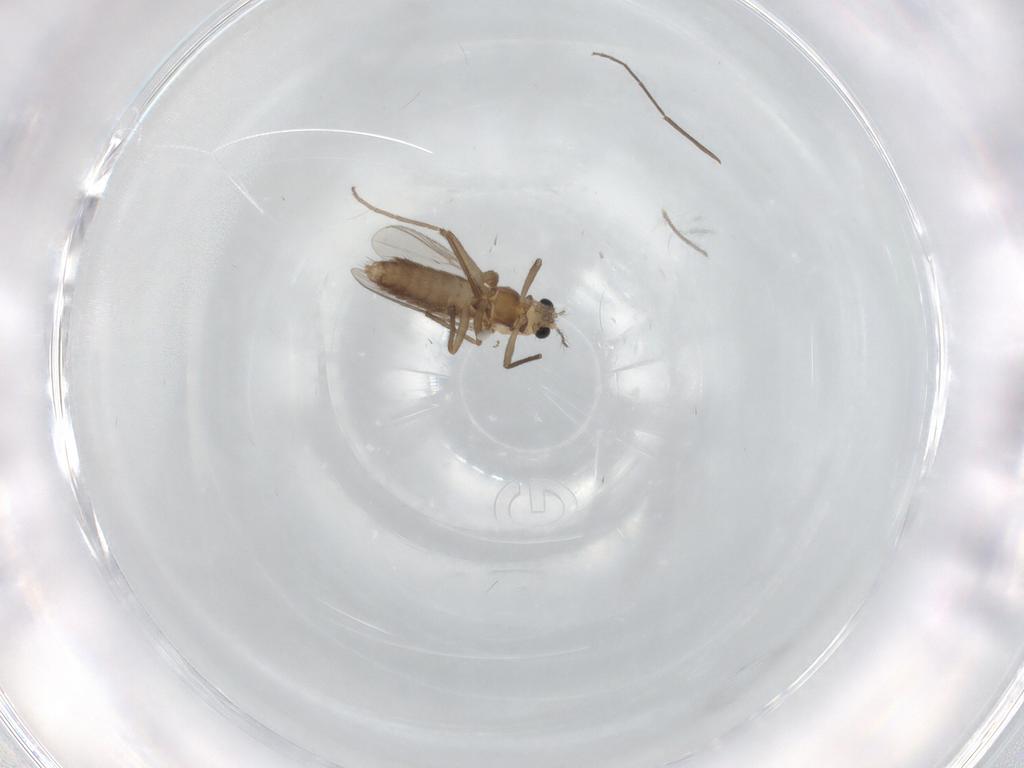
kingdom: Animalia
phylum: Arthropoda
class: Insecta
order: Diptera
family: Chironomidae
